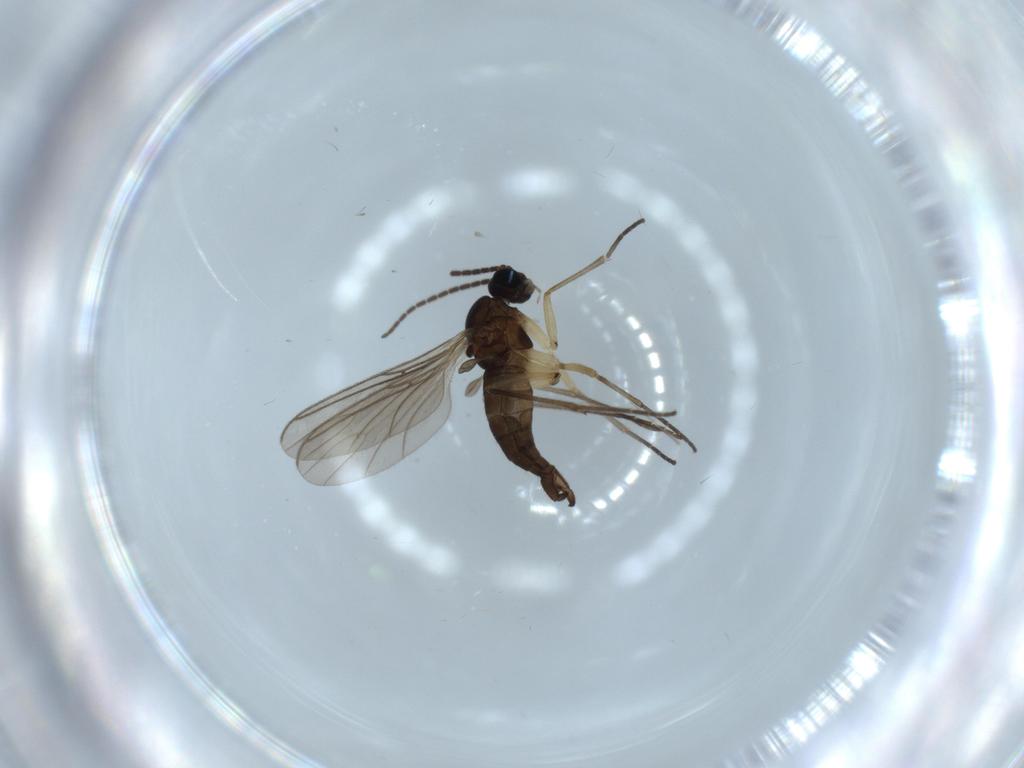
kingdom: Animalia
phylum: Arthropoda
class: Insecta
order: Diptera
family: Sciaridae
